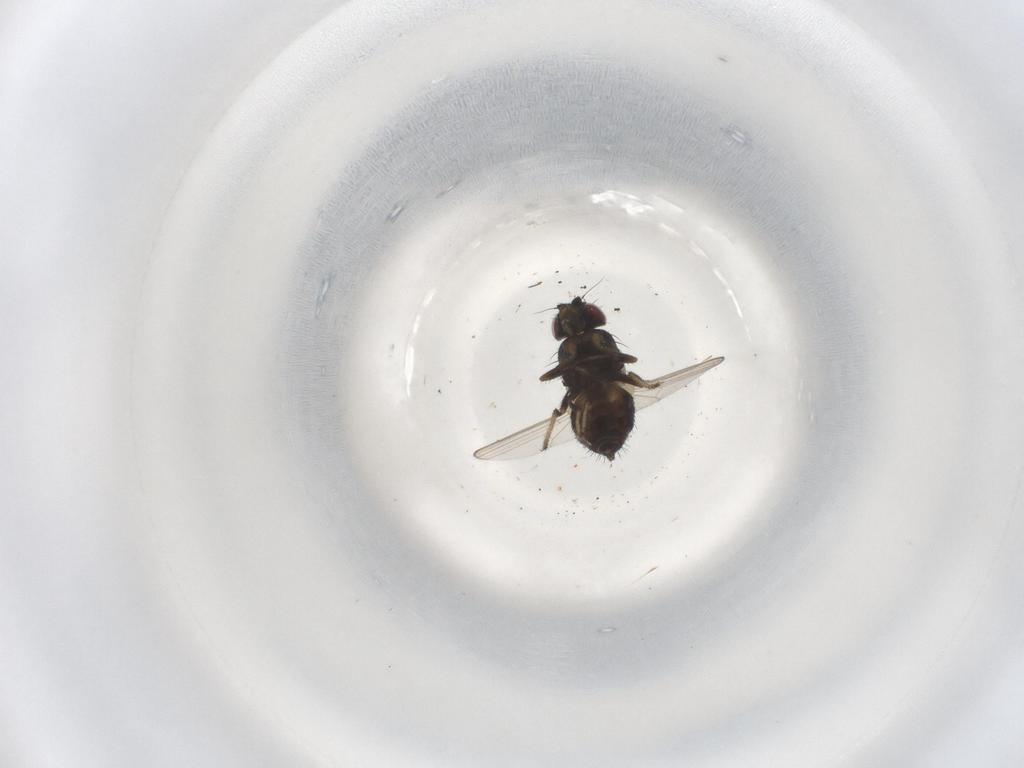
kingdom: Animalia
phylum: Arthropoda
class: Insecta
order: Diptera
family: Milichiidae
